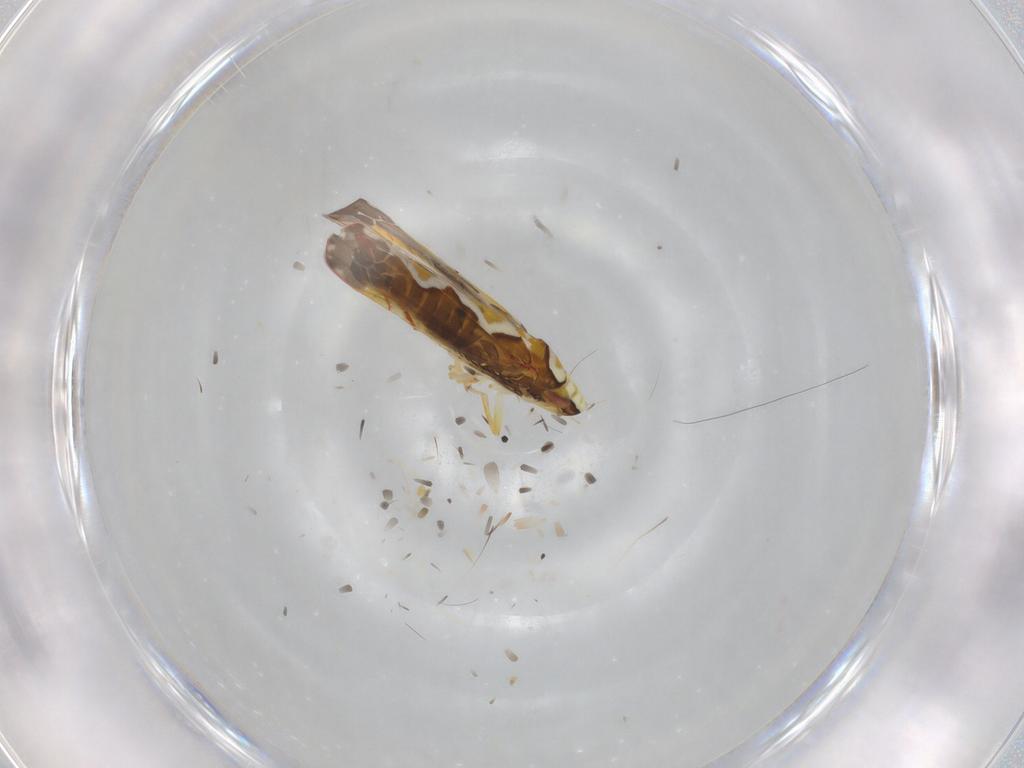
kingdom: Animalia
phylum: Arthropoda
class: Insecta
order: Hemiptera
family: Cicadellidae
